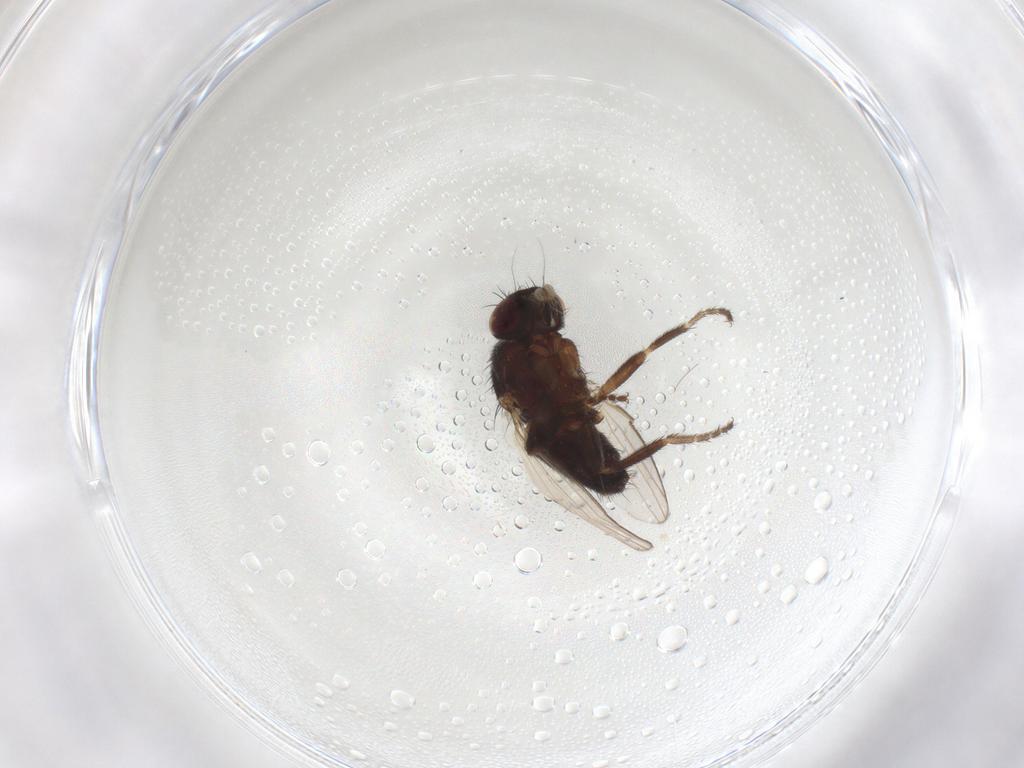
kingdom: Animalia
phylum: Arthropoda
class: Insecta
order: Diptera
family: Milichiidae
